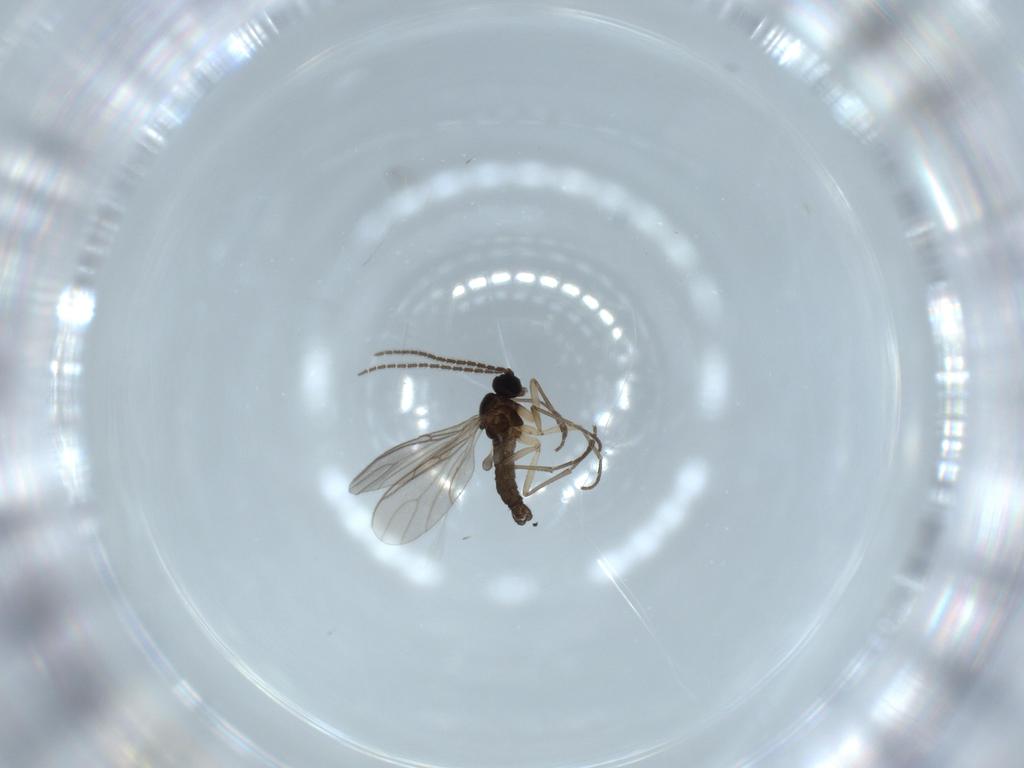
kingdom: Animalia
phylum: Arthropoda
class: Insecta
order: Diptera
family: Sciaridae
